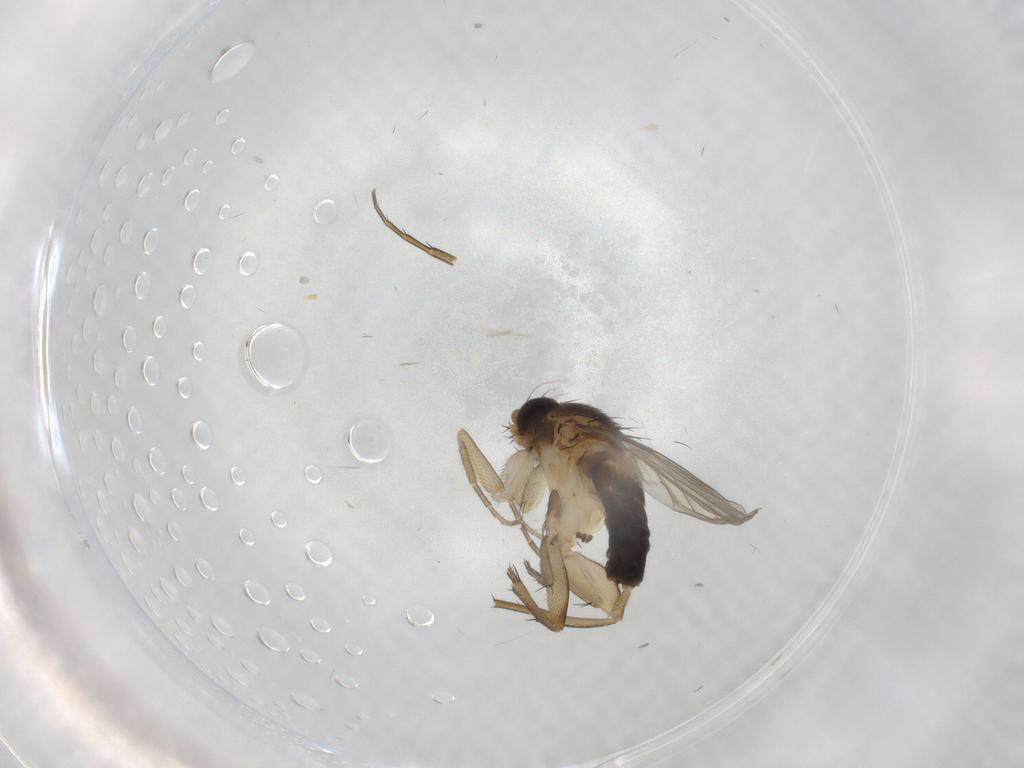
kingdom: Animalia
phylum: Arthropoda
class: Insecta
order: Diptera
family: Phoridae
